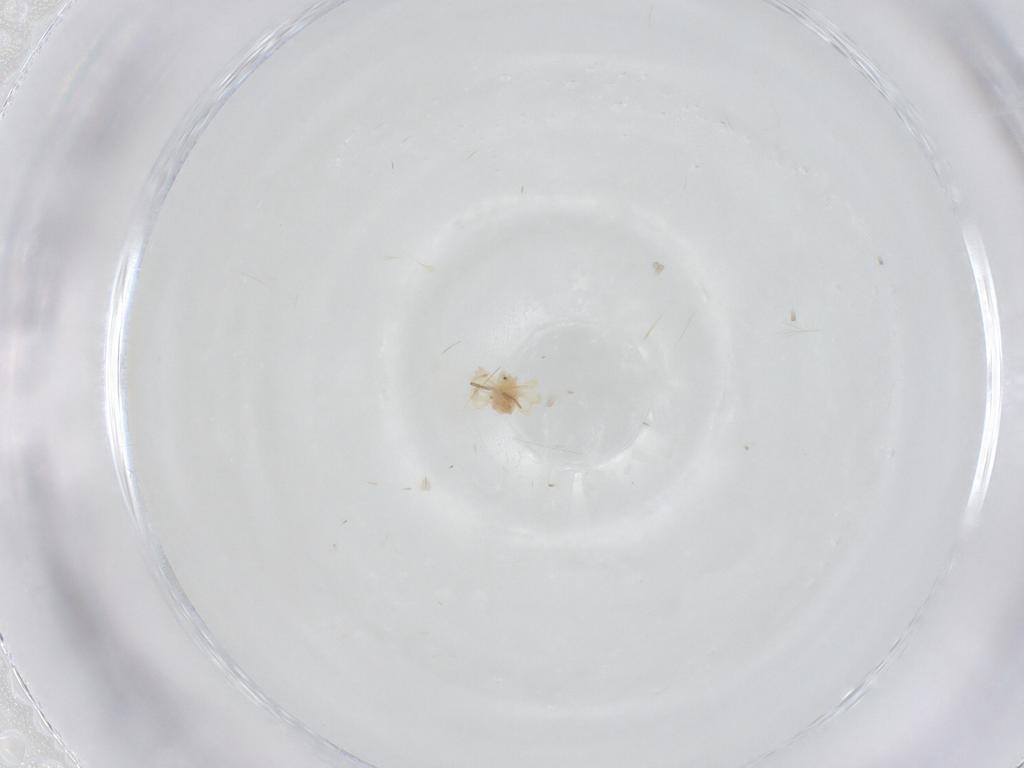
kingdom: Animalia
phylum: Arthropoda
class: Arachnida
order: Trombidiformes
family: Anystidae
